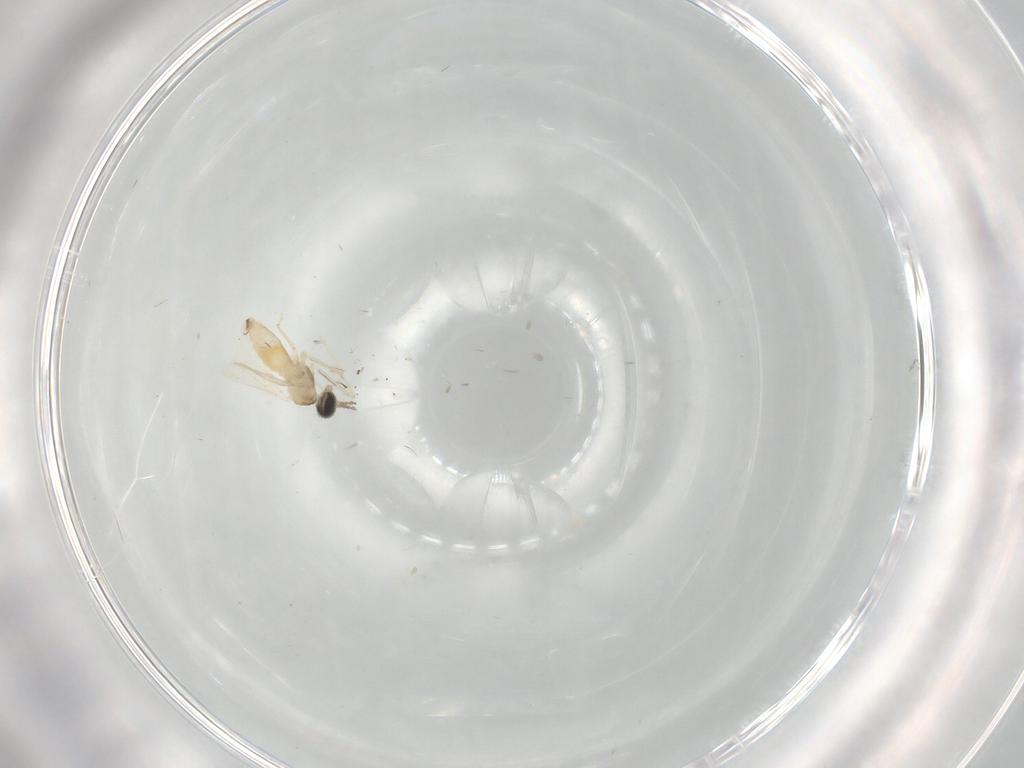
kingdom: Animalia
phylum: Arthropoda
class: Insecta
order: Diptera
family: Cecidomyiidae
